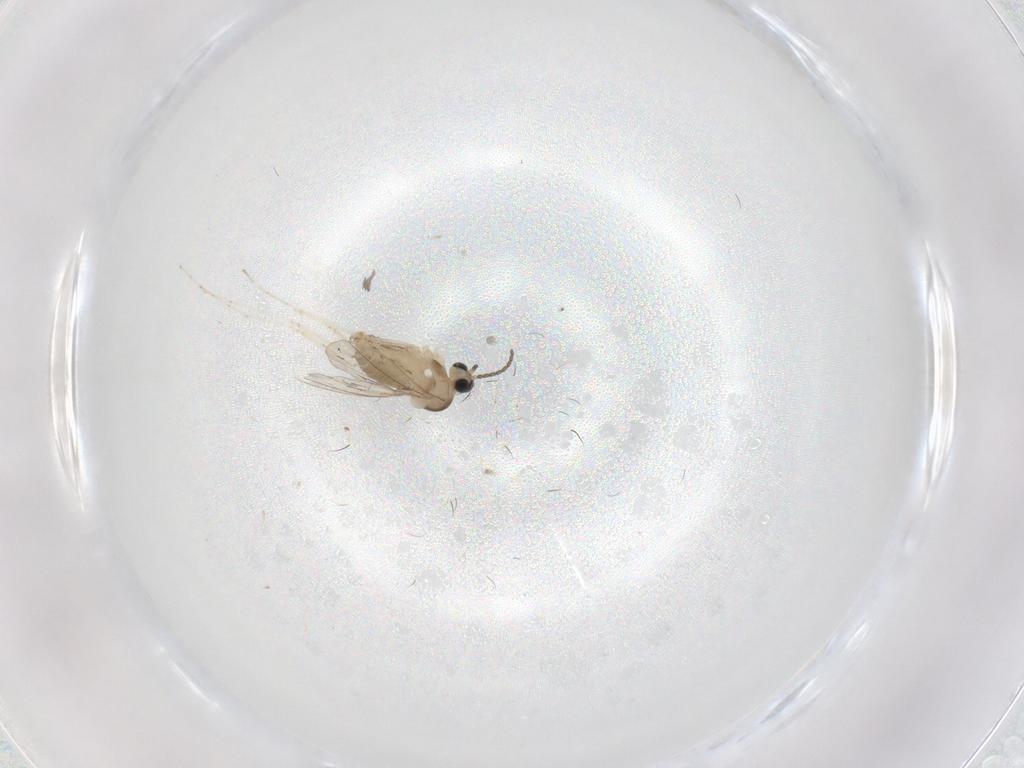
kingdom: Animalia
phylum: Arthropoda
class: Insecta
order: Diptera
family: Cecidomyiidae
